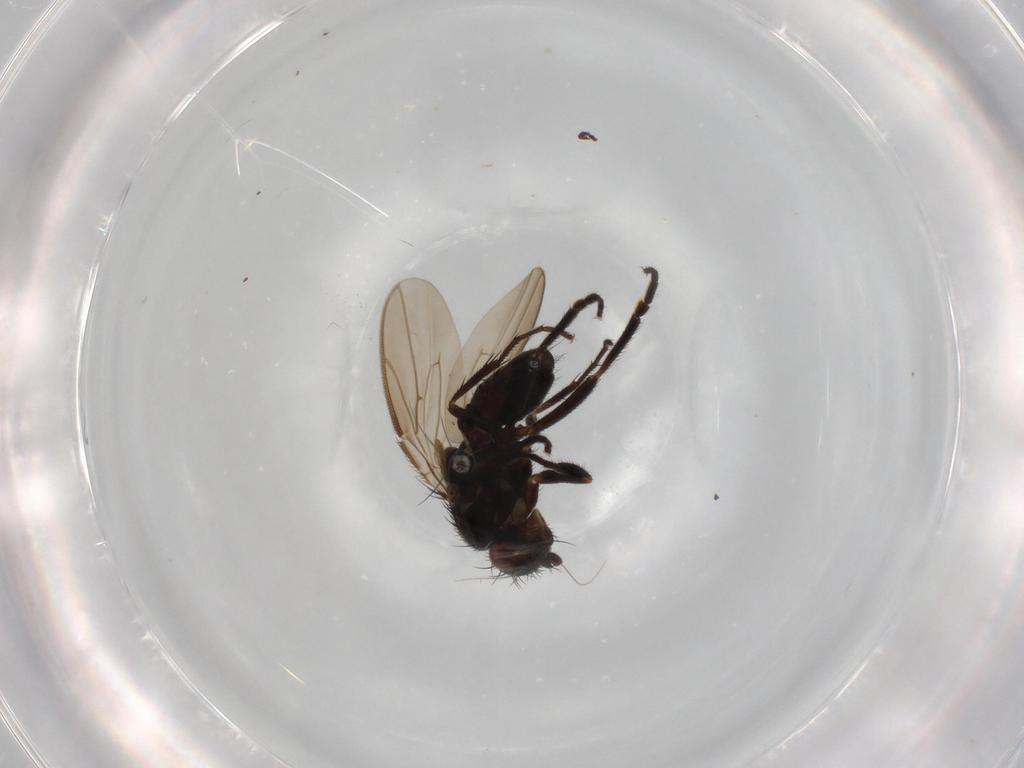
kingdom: Animalia
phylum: Arthropoda
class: Insecta
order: Diptera
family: Sphaeroceridae
